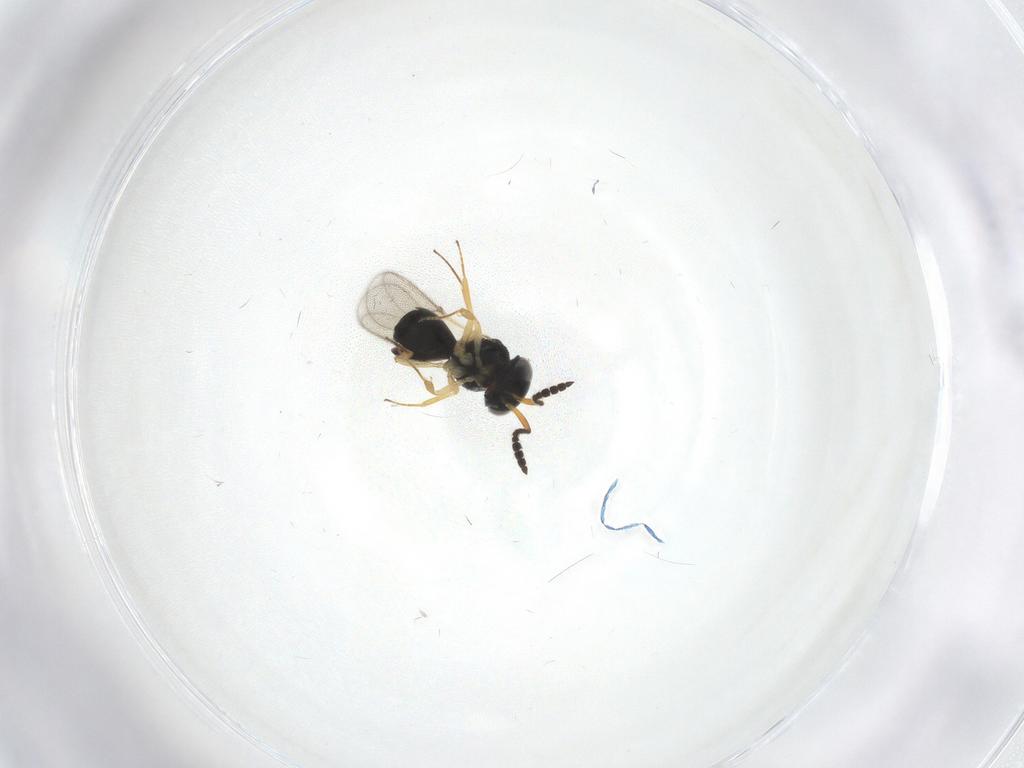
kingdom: Animalia
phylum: Arthropoda
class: Insecta
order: Hymenoptera
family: Scelionidae
